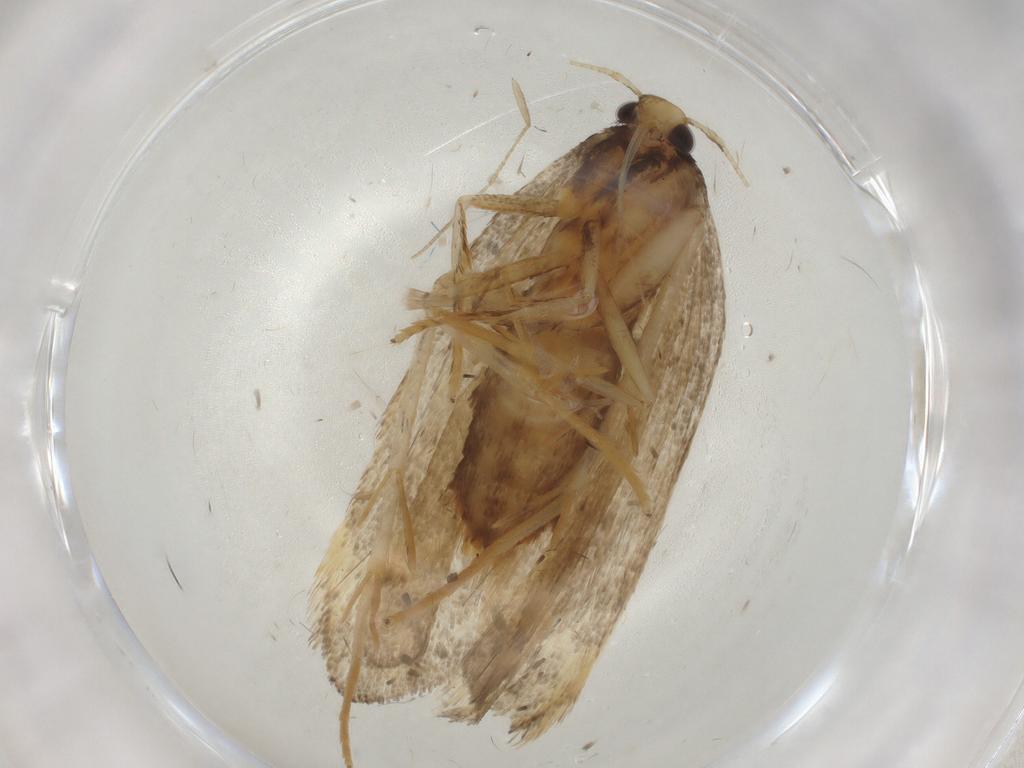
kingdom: Animalia
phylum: Arthropoda
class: Insecta
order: Lepidoptera
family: Lecithoceridae
